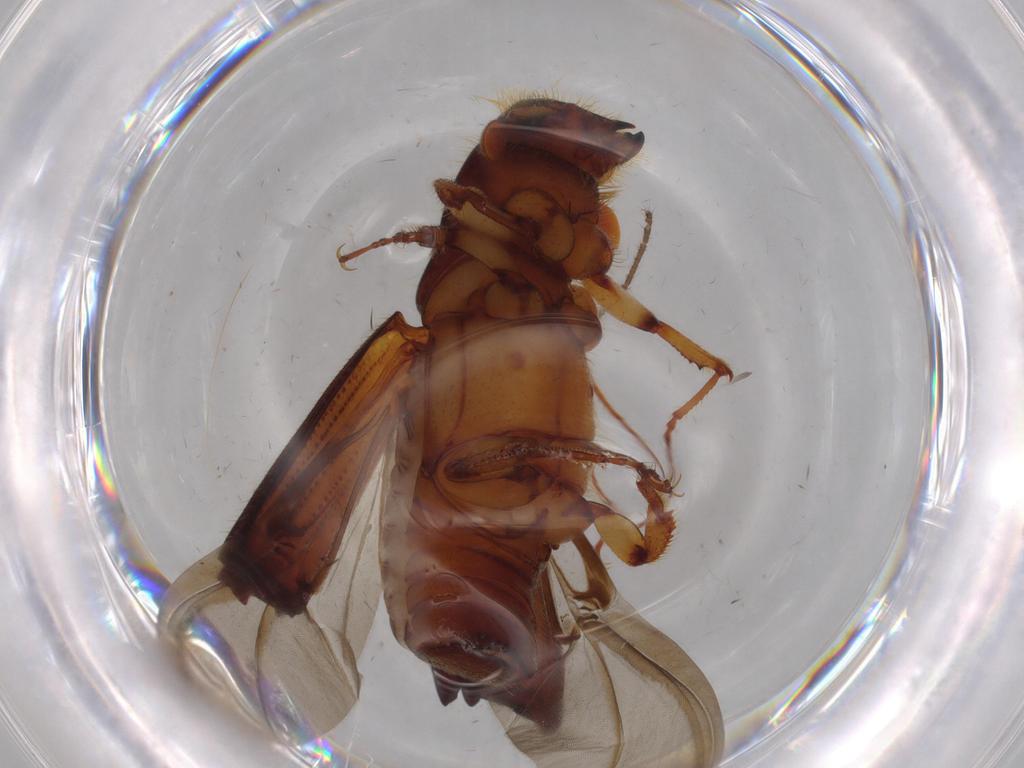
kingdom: Animalia
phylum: Arthropoda
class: Insecta
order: Coleoptera
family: Curculionidae
